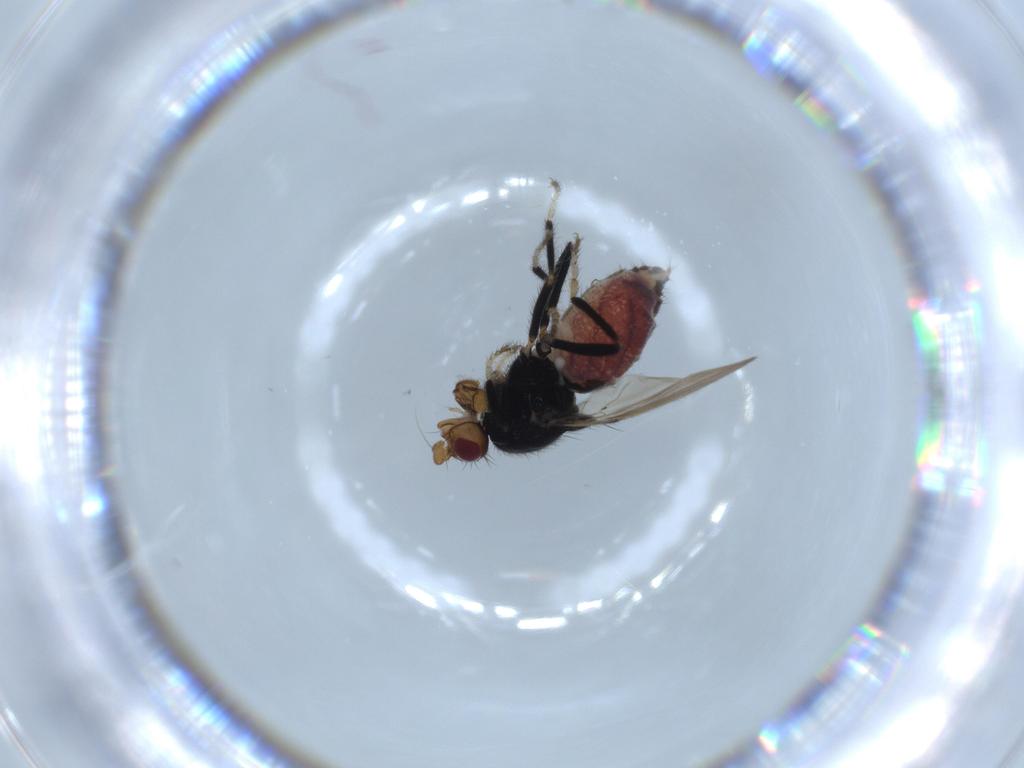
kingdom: Animalia
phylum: Arthropoda
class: Insecta
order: Diptera
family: Sphaeroceridae
